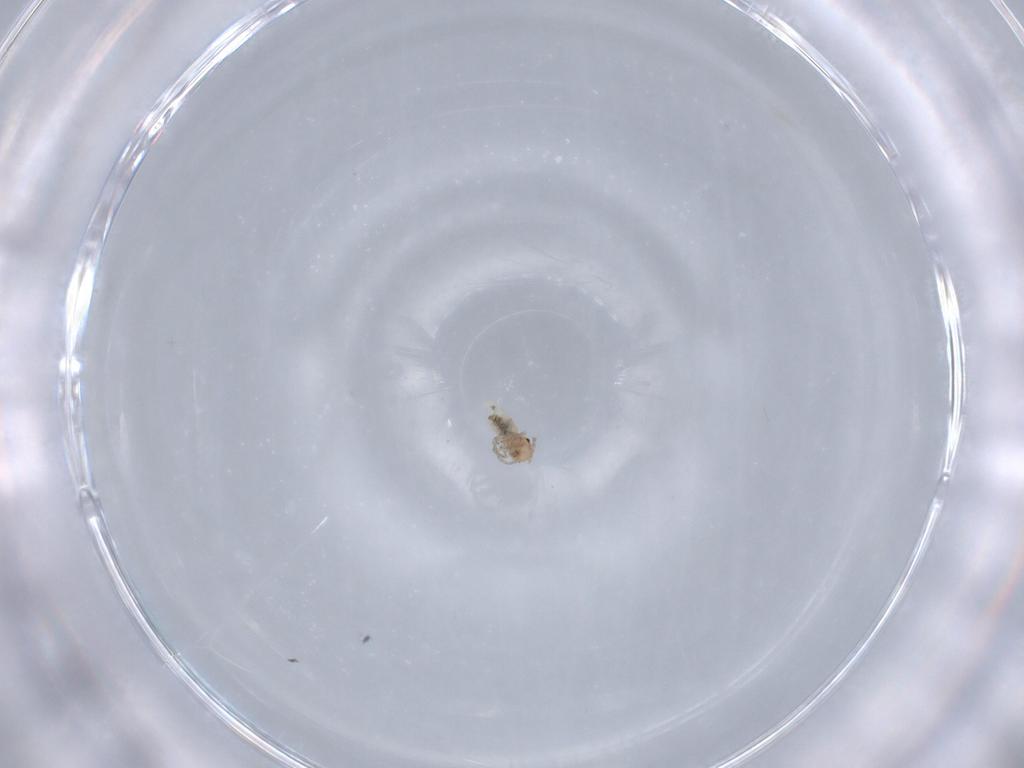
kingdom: Animalia
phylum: Arthropoda
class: Insecta
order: Psocodea
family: Caeciliusidae
